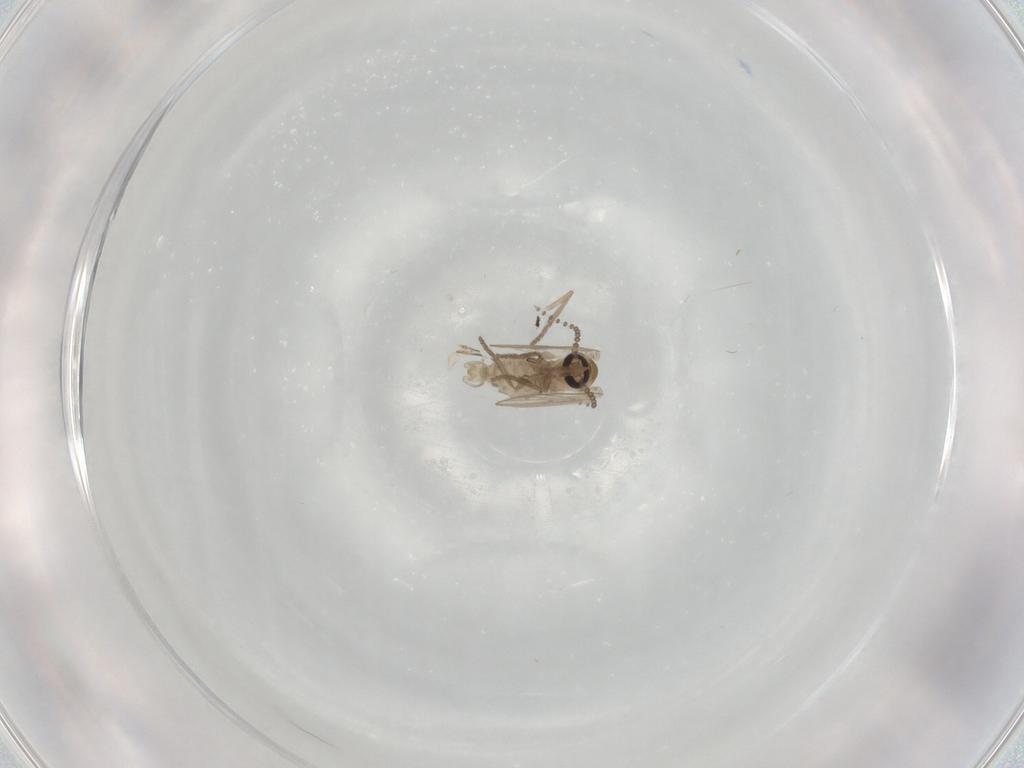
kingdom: Animalia
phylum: Arthropoda
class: Insecta
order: Diptera
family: Psychodidae
